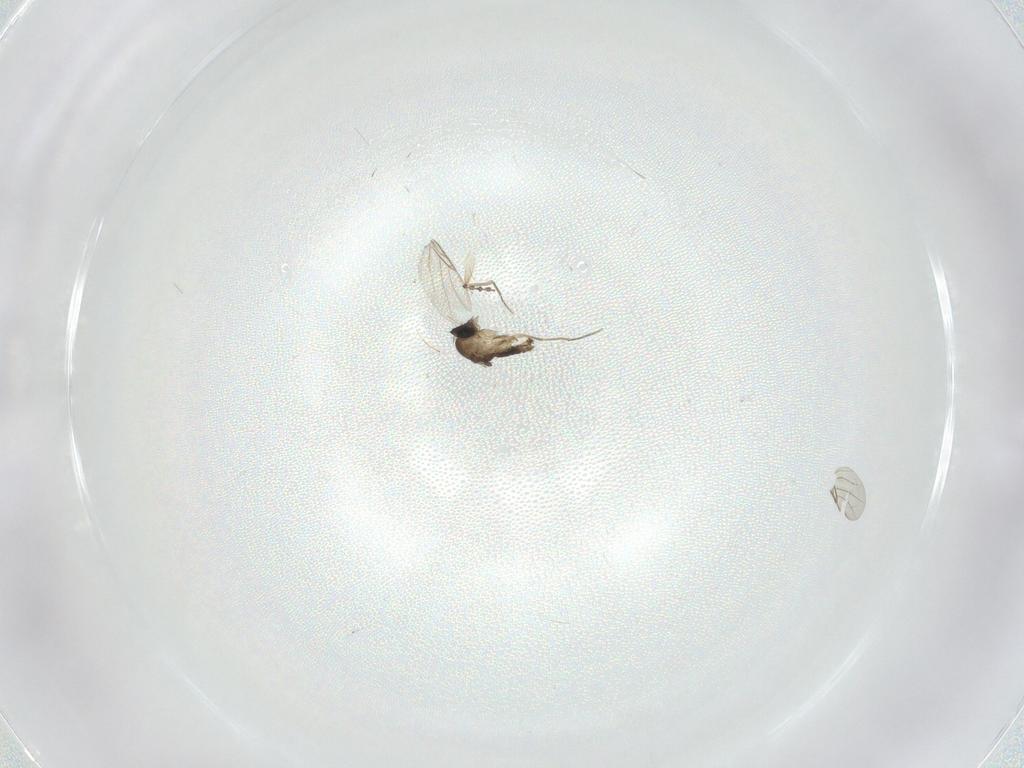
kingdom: Animalia
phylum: Arthropoda
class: Insecta
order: Diptera
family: Phoridae
